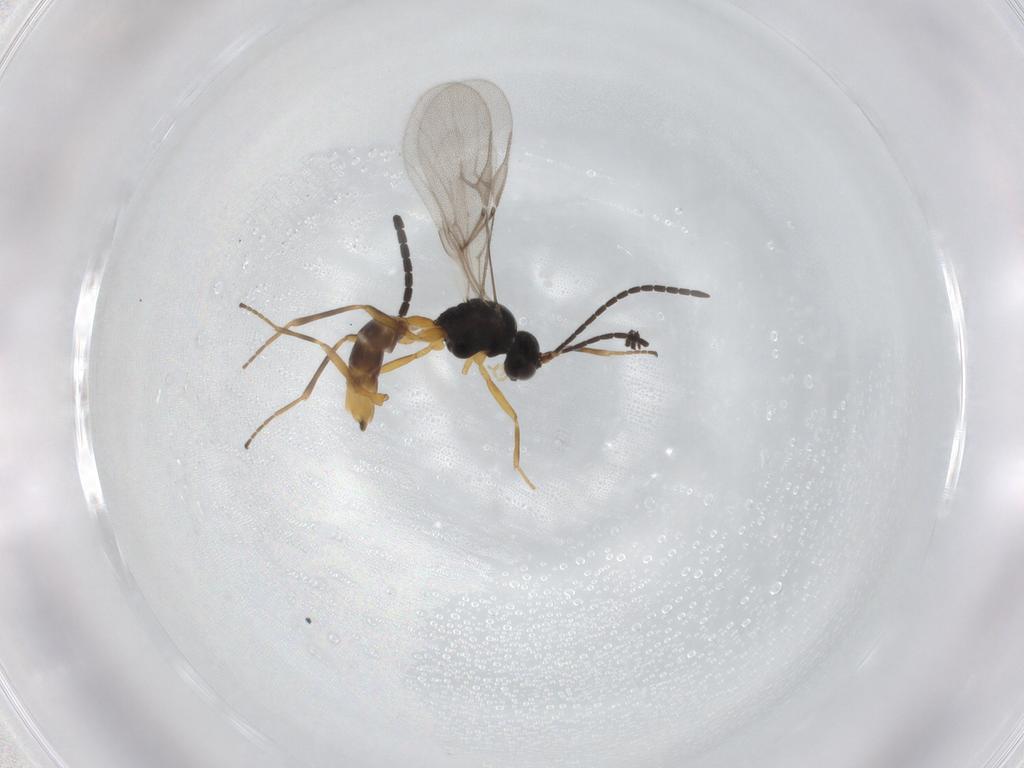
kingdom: Animalia
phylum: Arthropoda
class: Insecta
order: Hymenoptera
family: Braconidae
